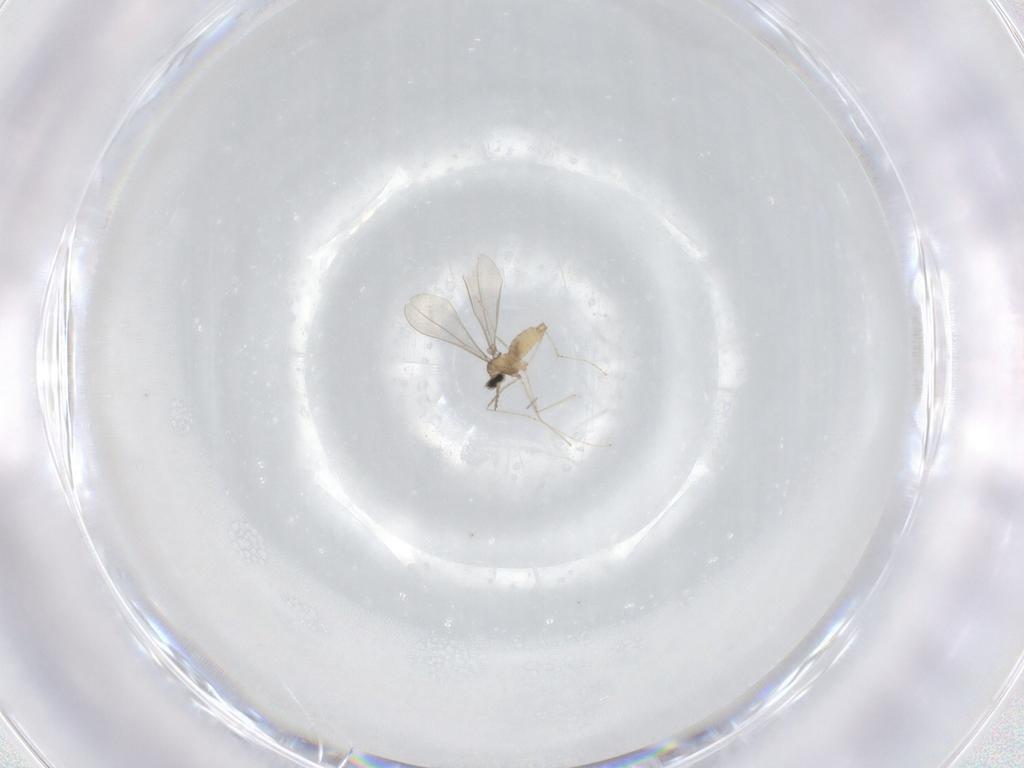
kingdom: Animalia
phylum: Arthropoda
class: Insecta
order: Diptera
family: Cecidomyiidae
